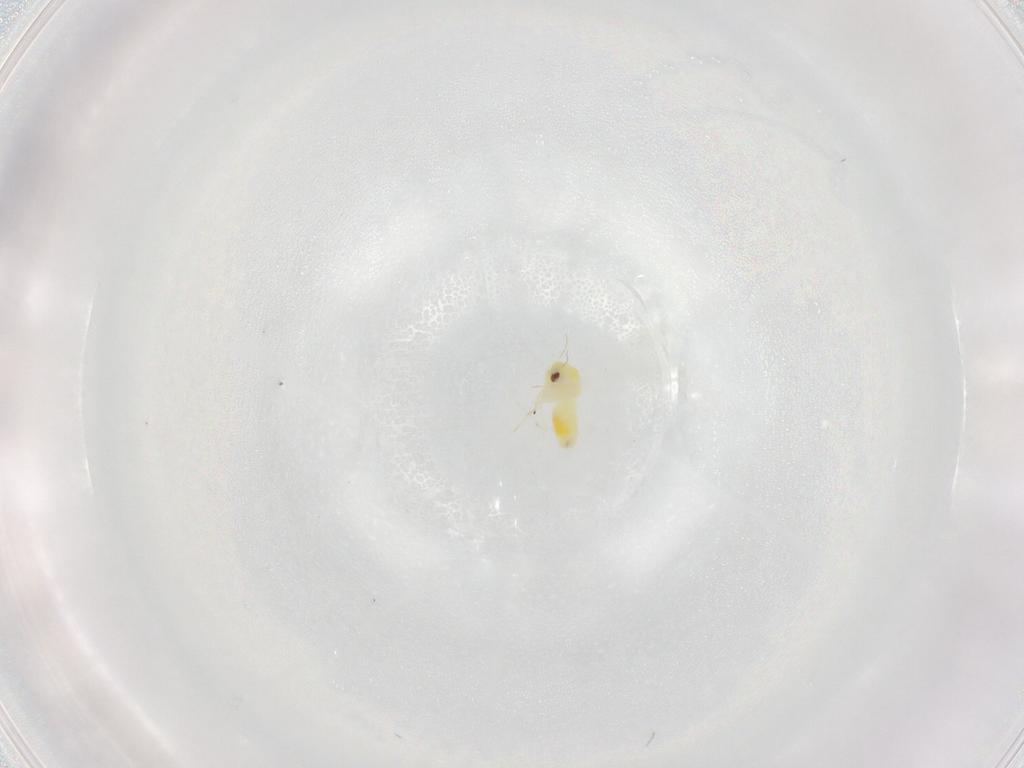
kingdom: Animalia
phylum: Arthropoda
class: Insecta
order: Hemiptera
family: Aleyrodidae
